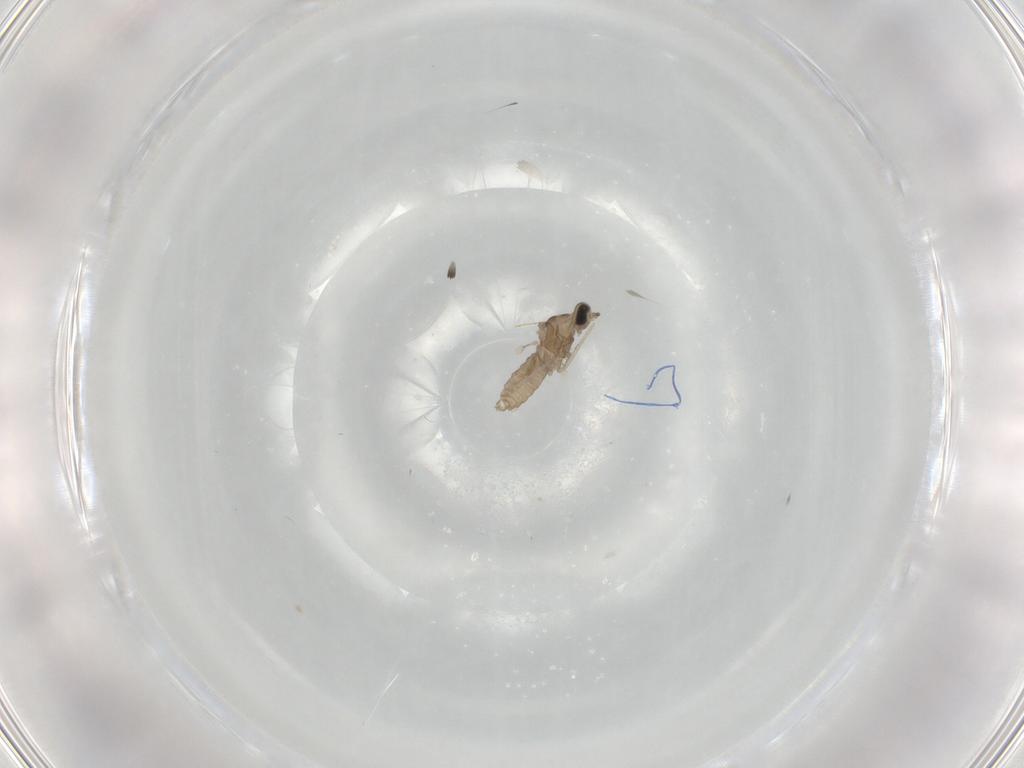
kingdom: Animalia
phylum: Arthropoda
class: Insecta
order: Diptera
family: Cecidomyiidae
